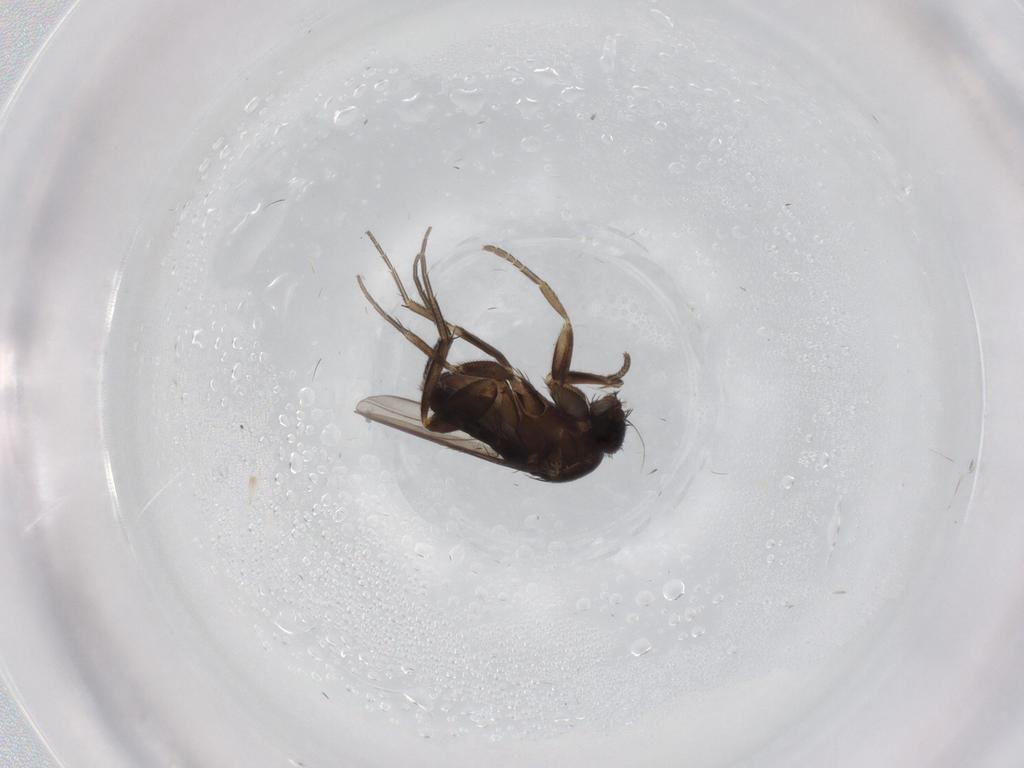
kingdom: Animalia
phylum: Arthropoda
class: Insecta
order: Diptera
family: Phoridae
